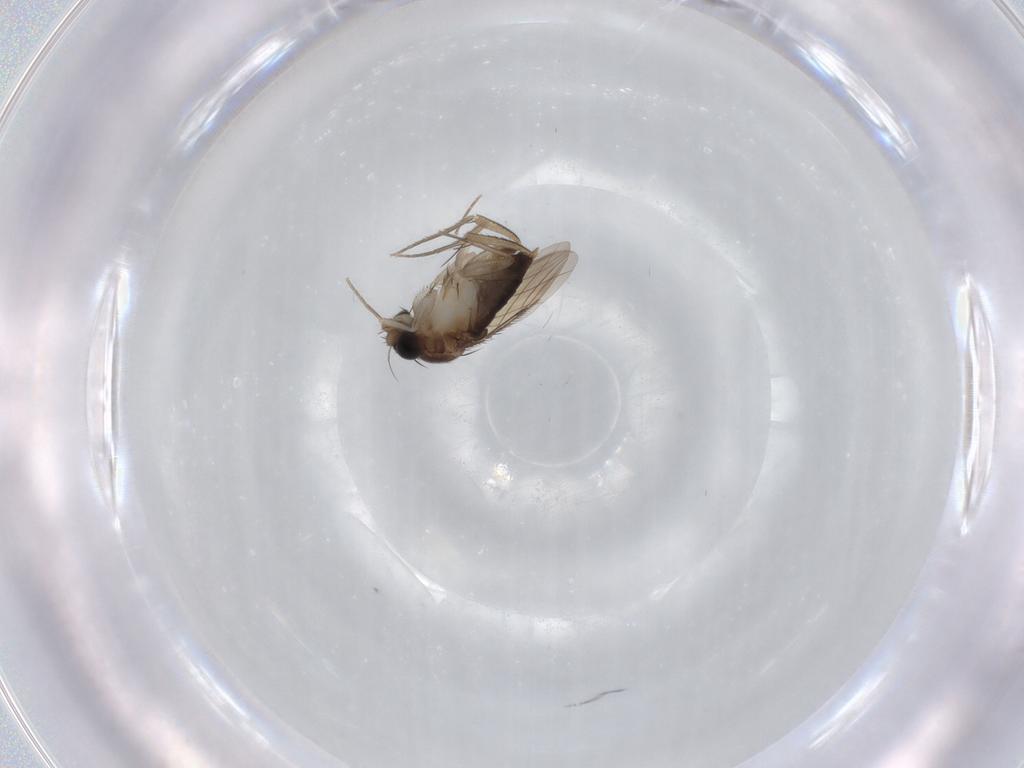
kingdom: Animalia
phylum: Arthropoda
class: Insecta
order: Diptera
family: Phoridae
